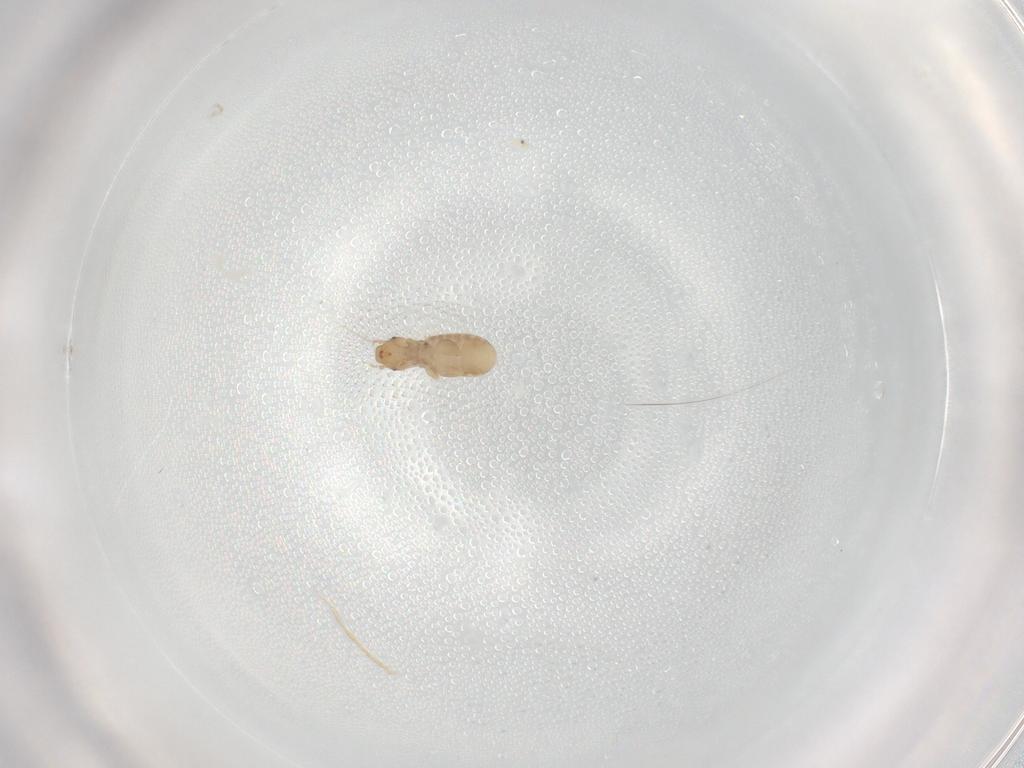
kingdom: Animalia
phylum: Arthropoda
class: Insecta
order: Psocodea
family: Liposcelididae
